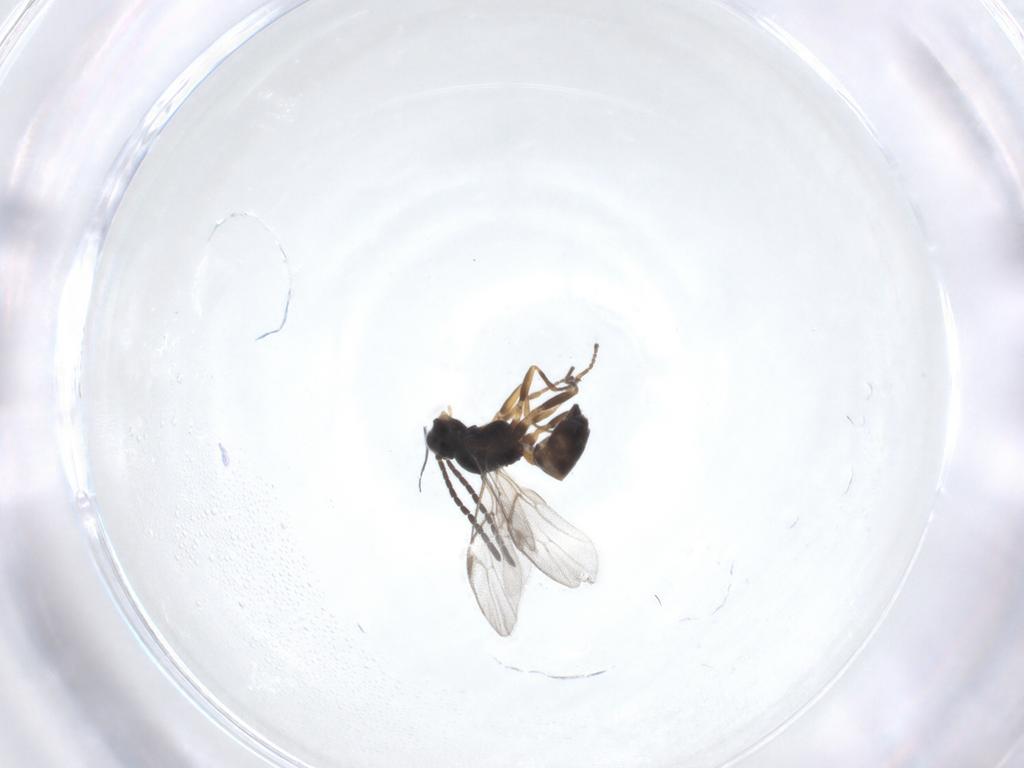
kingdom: Animalia
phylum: Arthropoda
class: Insecta
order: Hymenoptera
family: Braconidae
